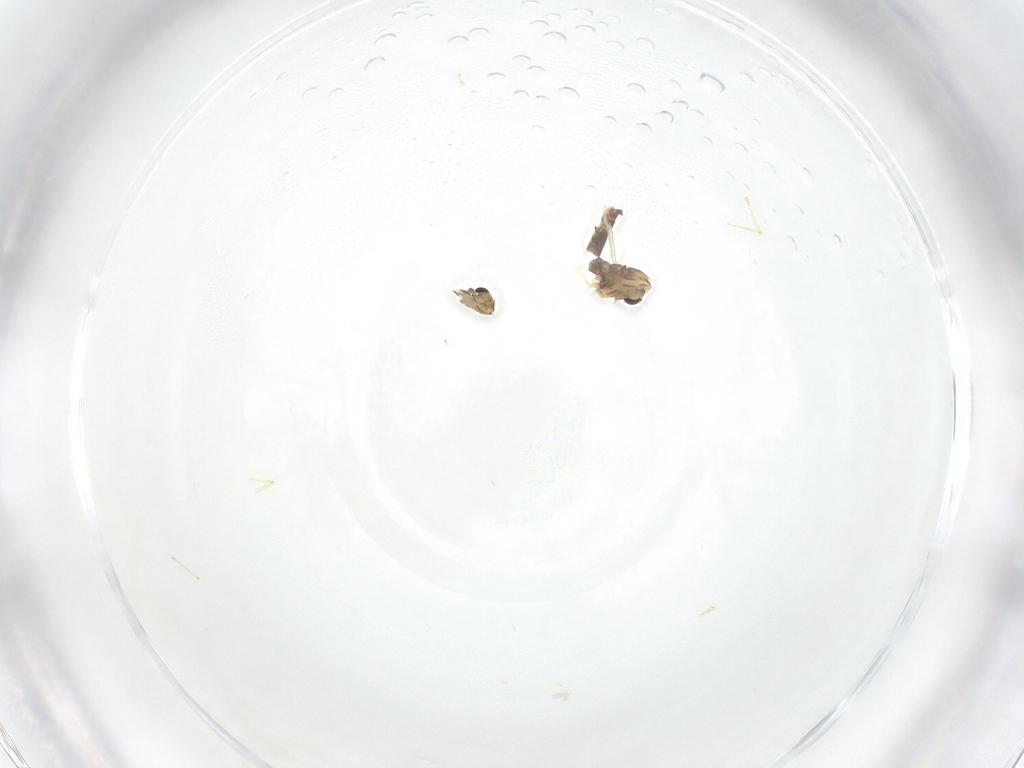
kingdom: Animalia
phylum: Arthropoda
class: Insecta
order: Diptera
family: Chironomidae
